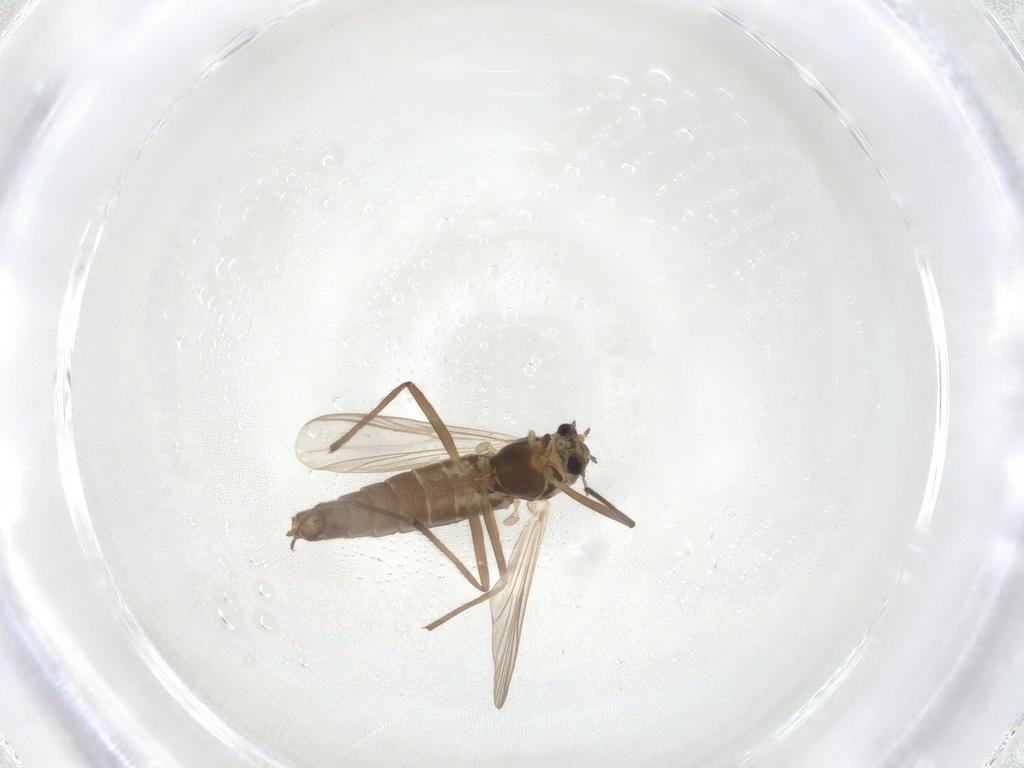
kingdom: Animalia
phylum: Arthropoda
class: Insecta
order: Diptera
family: Chironomidae
